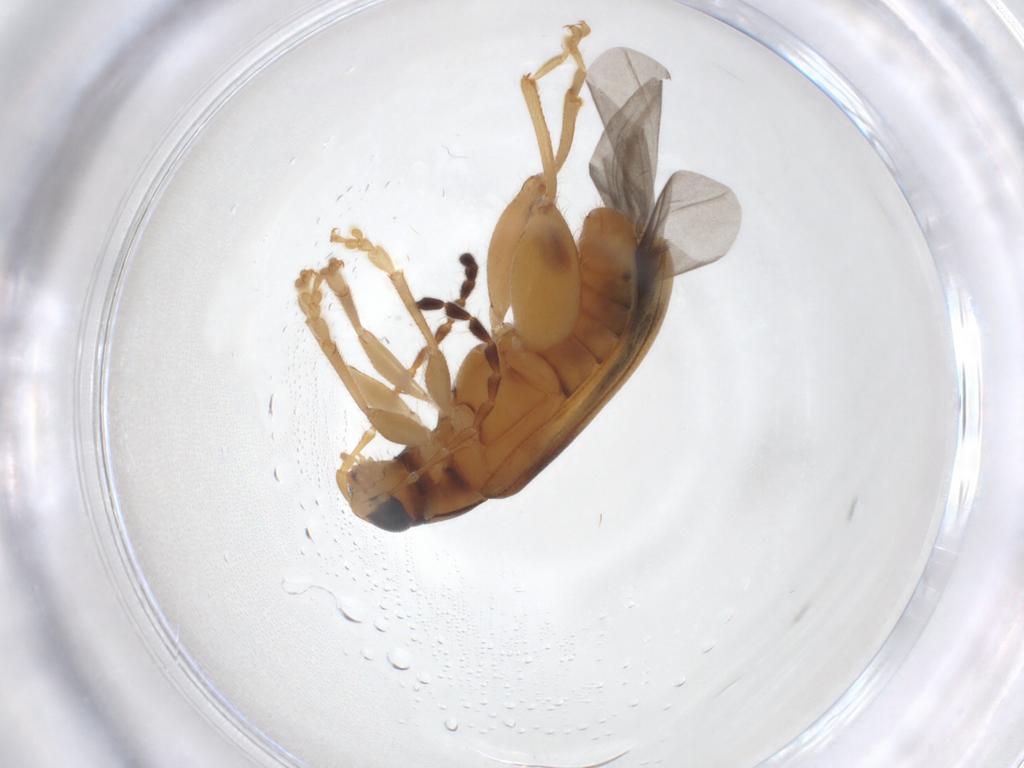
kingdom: Animalia
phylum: Arthropoda
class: Insecta
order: Coleoptera
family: Chrysomelidae
